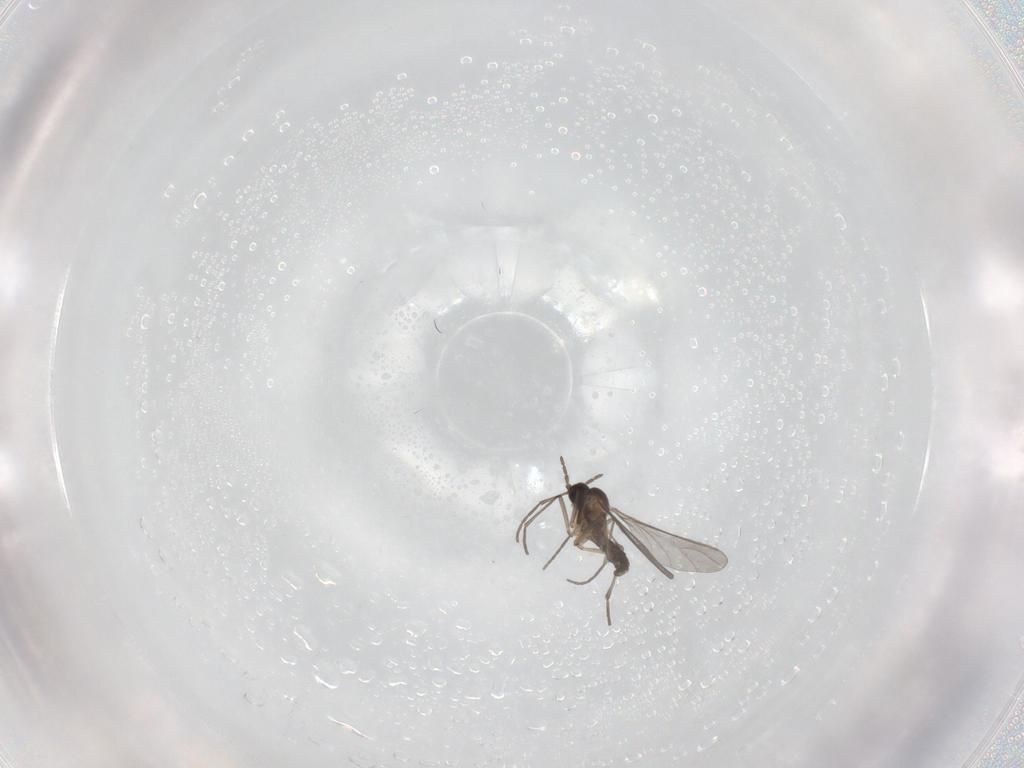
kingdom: Animalia
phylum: Arthropoda
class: Insecta
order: Diptera
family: Sciaridae
